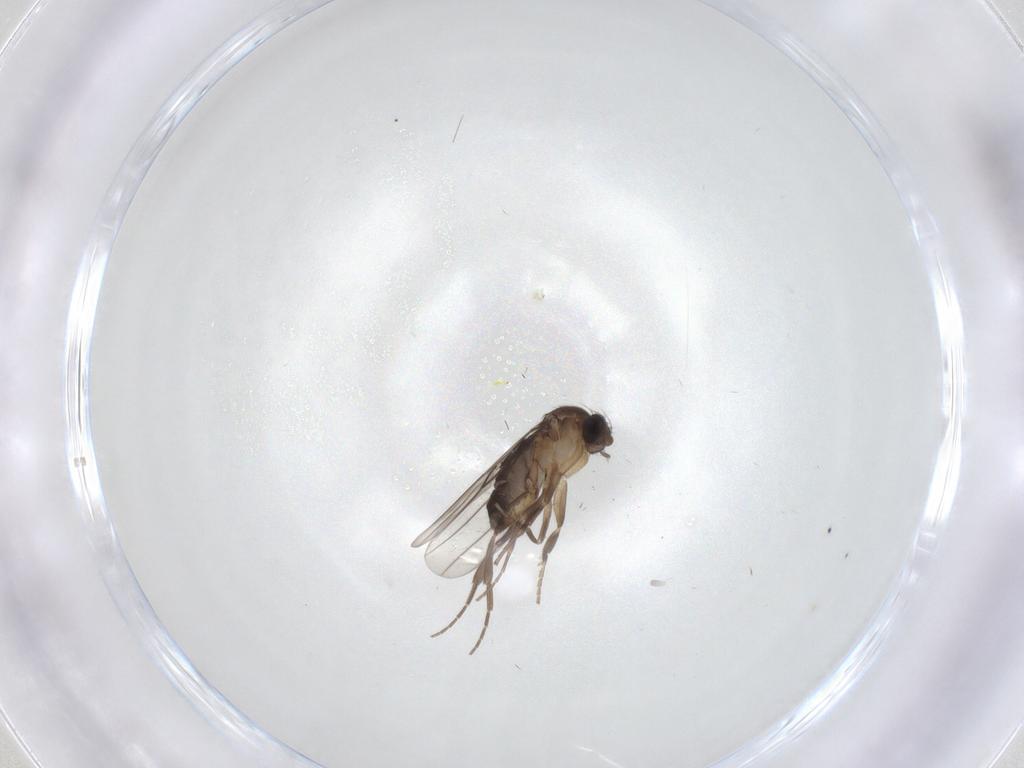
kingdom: Animalia
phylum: Arthropoda
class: Insecta
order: Diptera
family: Phoridae
